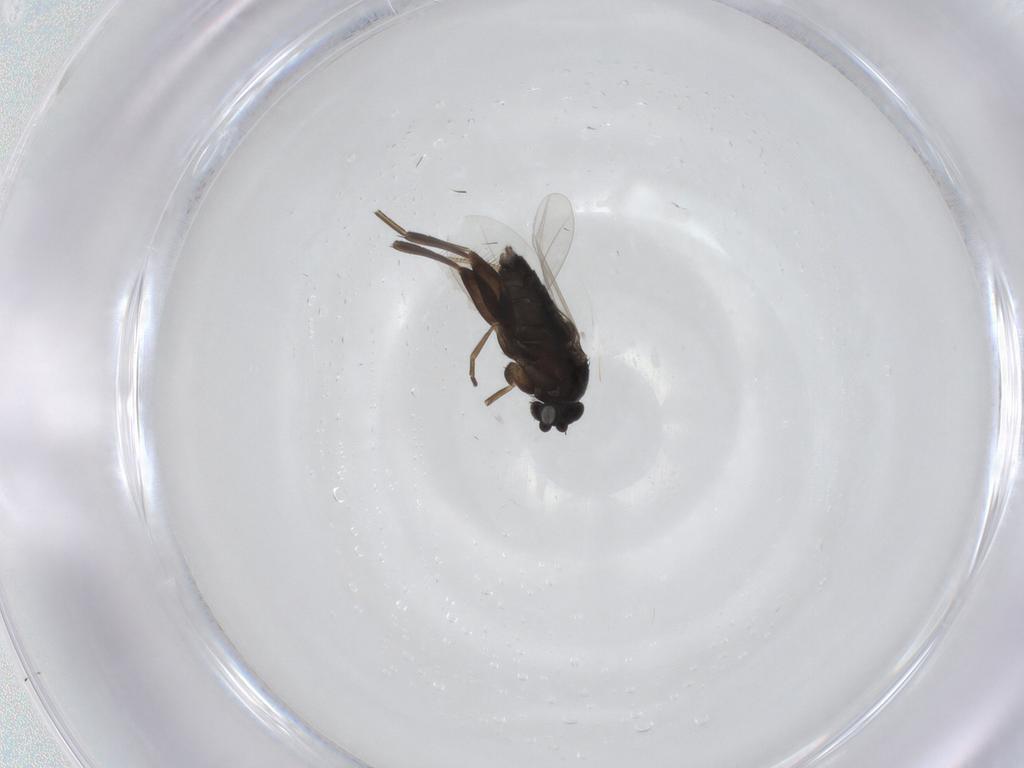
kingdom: Animalia
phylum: Arthropoda
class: Insecta
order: Diptera
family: Phoridae
